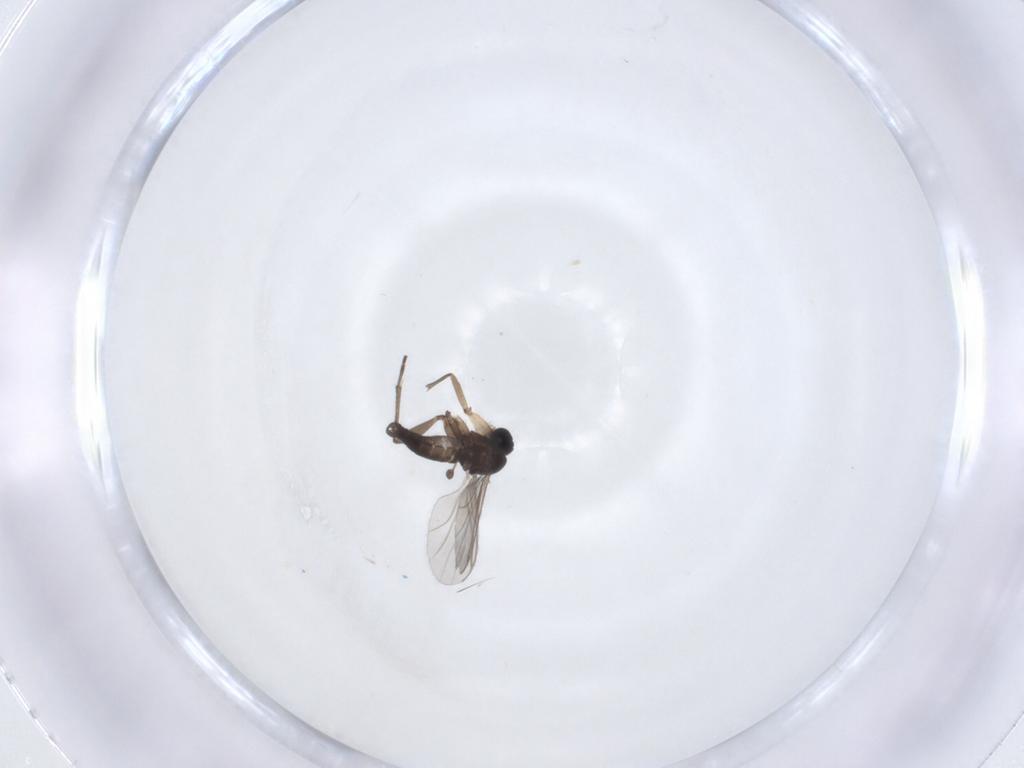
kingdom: Animalia
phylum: Arthropoda
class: Insecta
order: Diptera
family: Sciaridae
